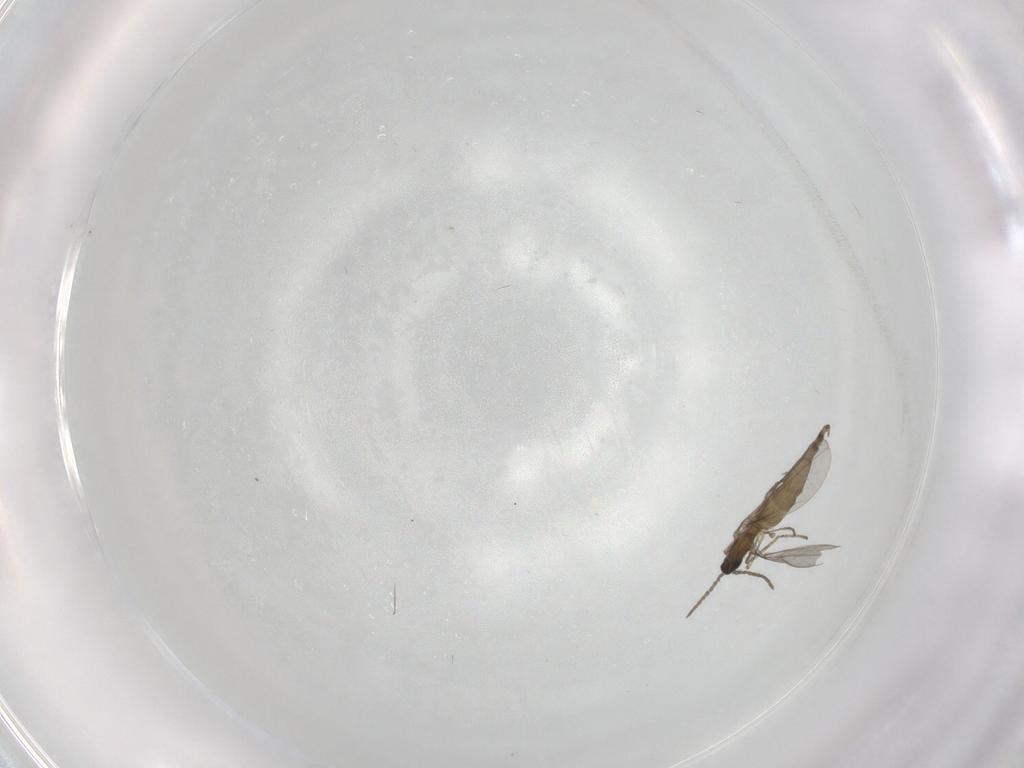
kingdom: Animalia
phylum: Arthropoda
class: Insecta
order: Diptera
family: Cecidomyiidae
